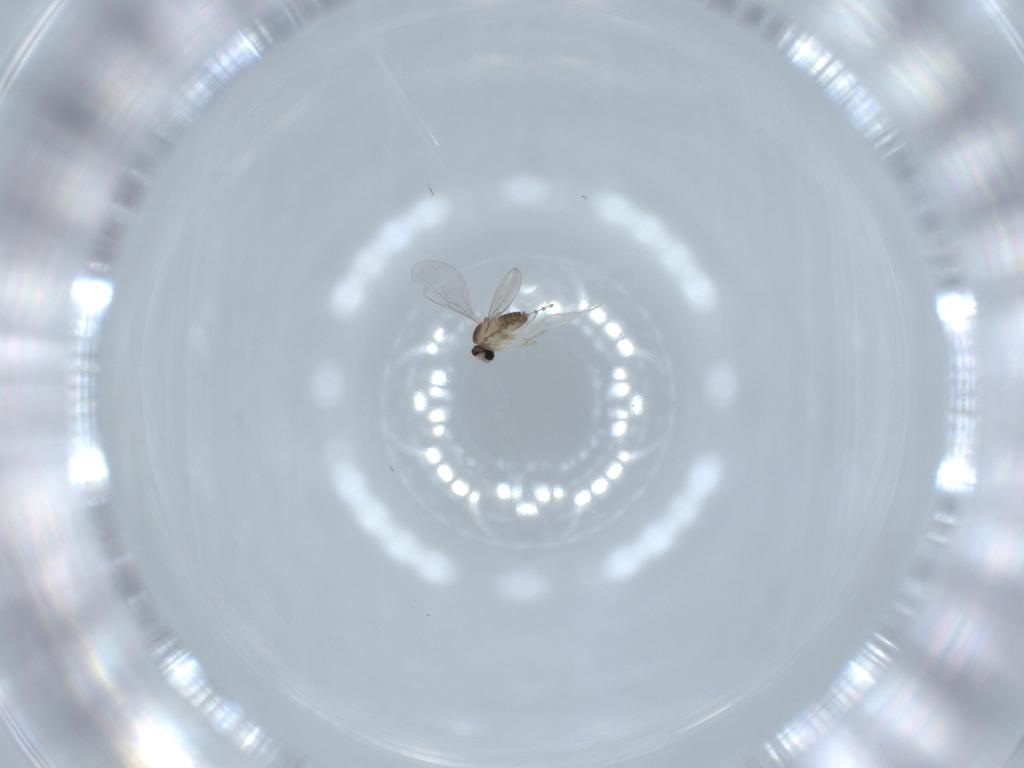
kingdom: Animalia
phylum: Arthropoda
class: Insecta
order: Diptera
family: Cecidomyiidae
